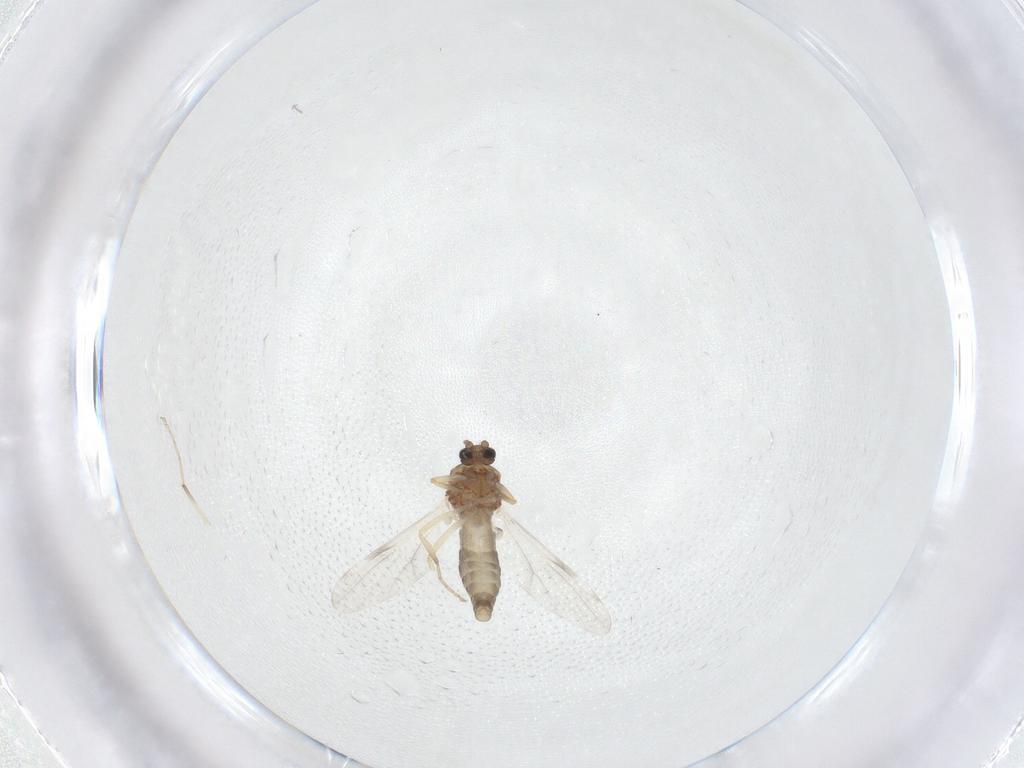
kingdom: Animalia
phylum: Arthropoda
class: Insecta
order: Diptera
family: Ceratopogonidae
